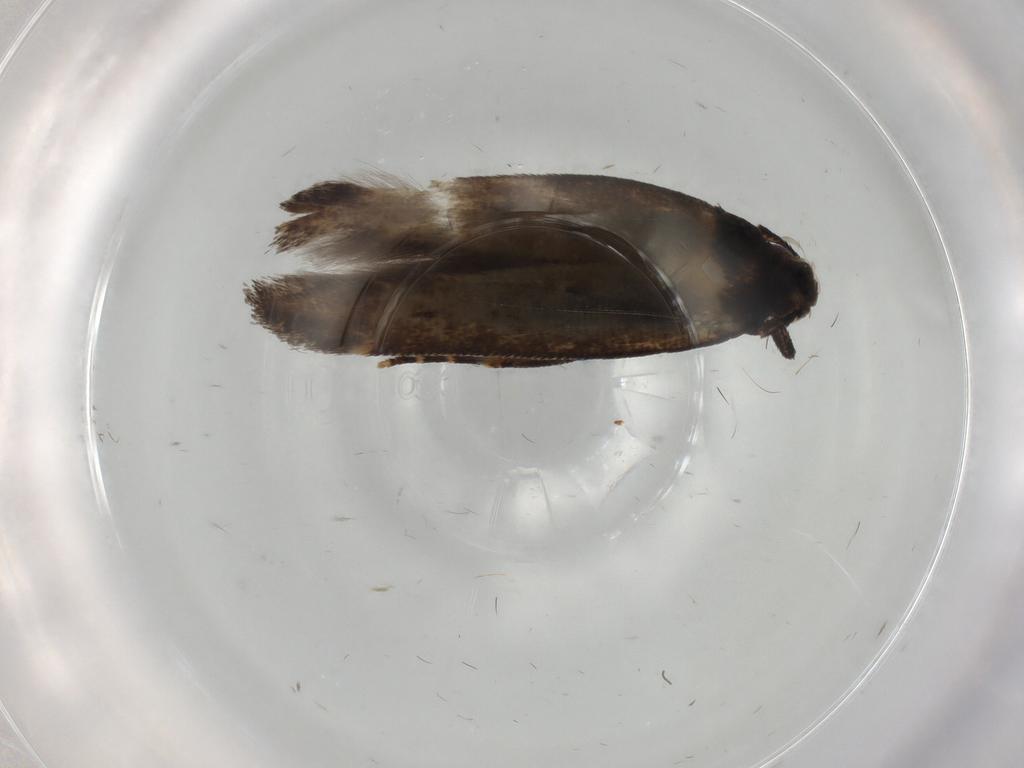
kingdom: Animalia
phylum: Arthropoda
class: Insecta
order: Lepidoptera
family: Cosmopterigidae
